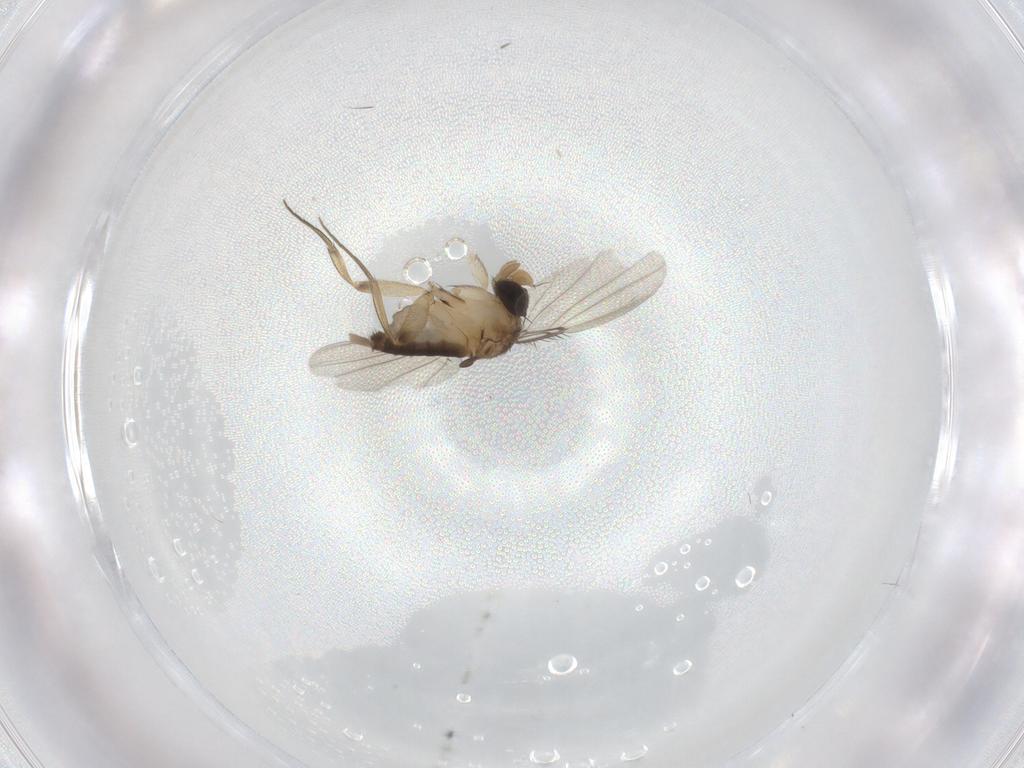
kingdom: Animalia
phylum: Arthropoda
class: Insecta
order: Diptera
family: Phoridae
